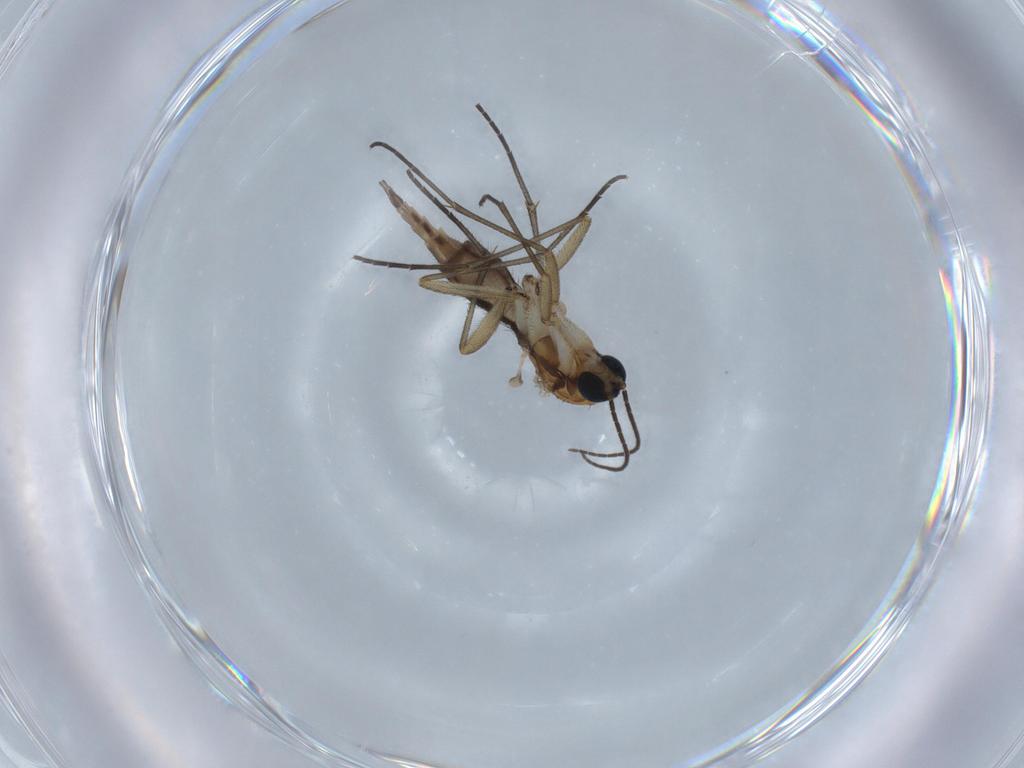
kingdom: Animalia
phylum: Arthropoda
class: Insecta
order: Diptera
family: Sciaridae
